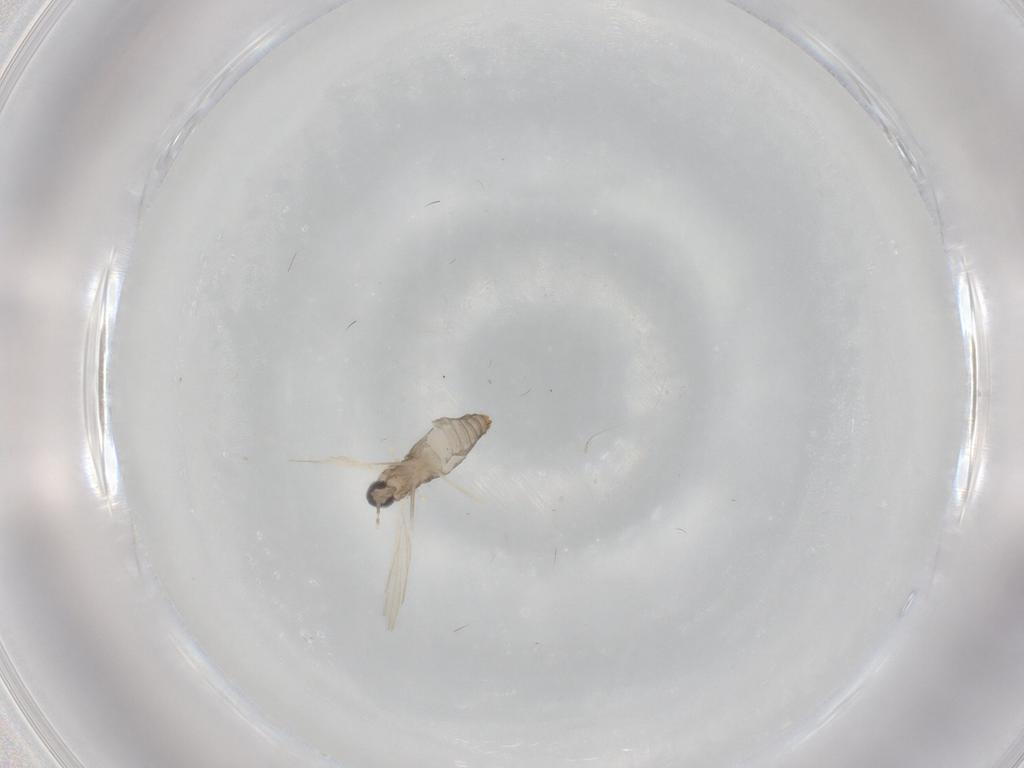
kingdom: Animalia
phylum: Arthropoda
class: Insecta
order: Diptera
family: Cecidomyiidae
